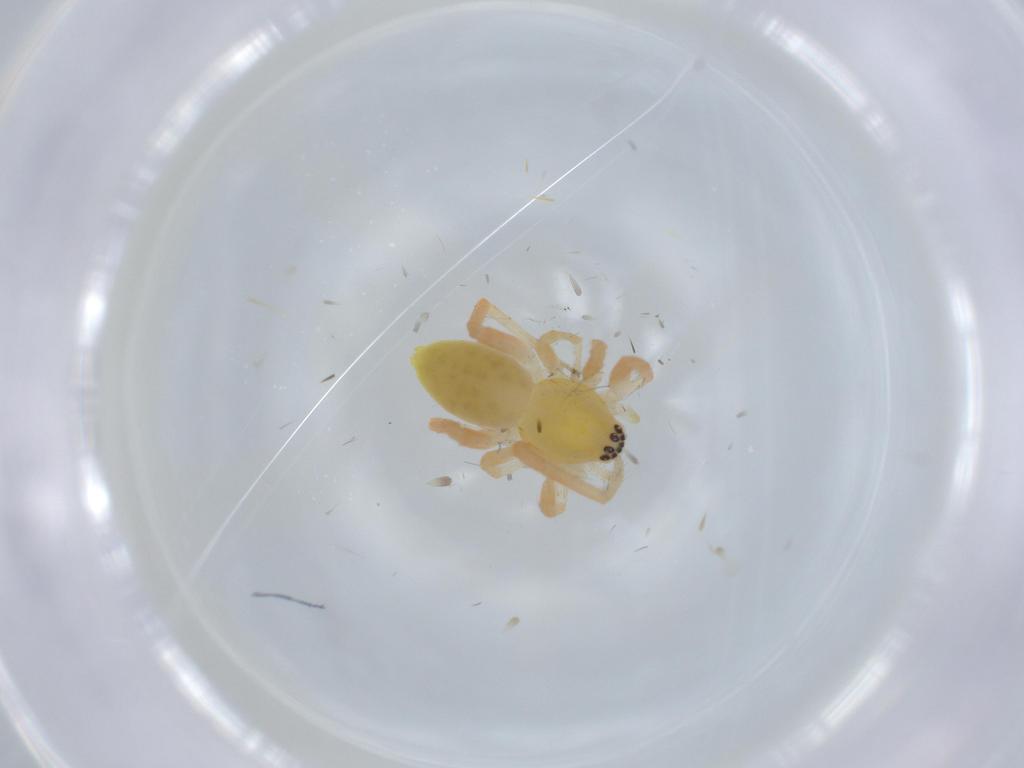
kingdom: Animalia
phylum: Arthropoda
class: Arachnida
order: Araneae
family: Anyphaenidae
